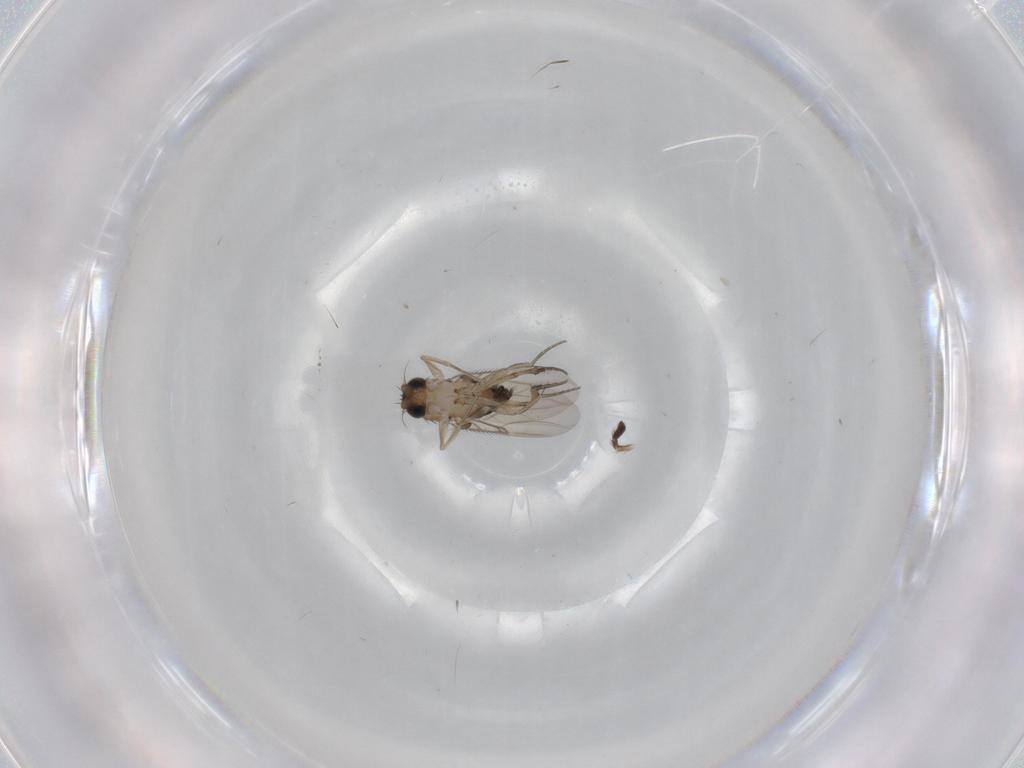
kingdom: Animalia
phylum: Arthropoda
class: Insecta
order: Diptera
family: Phoridae
